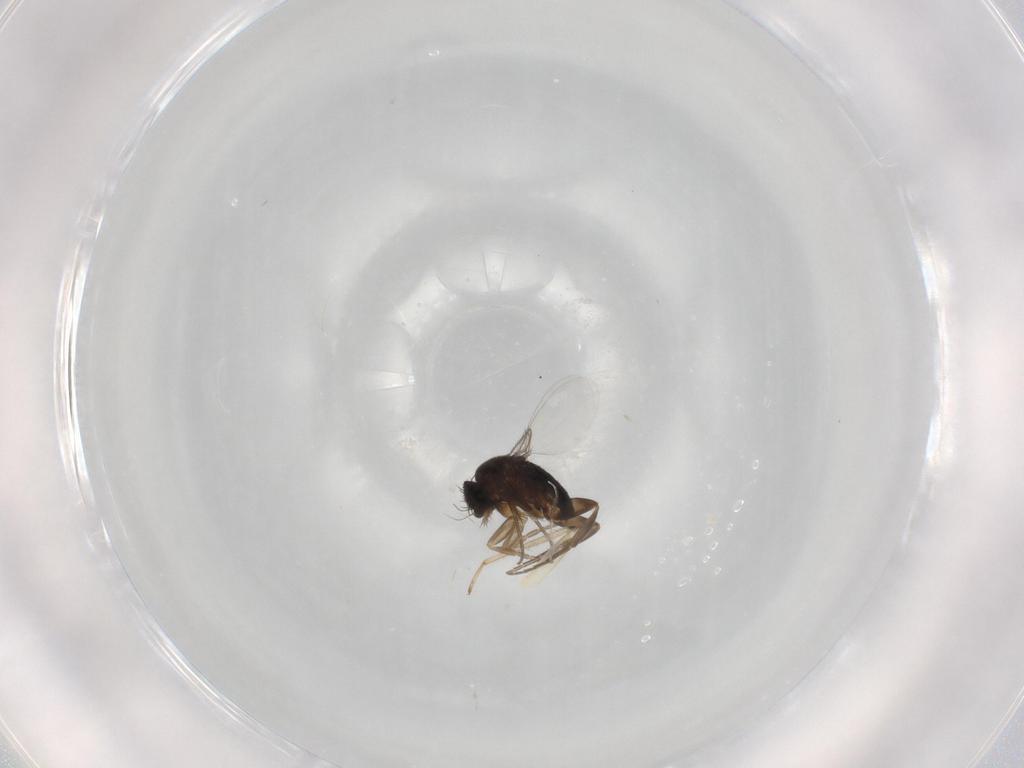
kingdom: Animalia
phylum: Arthropoda
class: Insecta
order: Diptera
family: Phoridae
